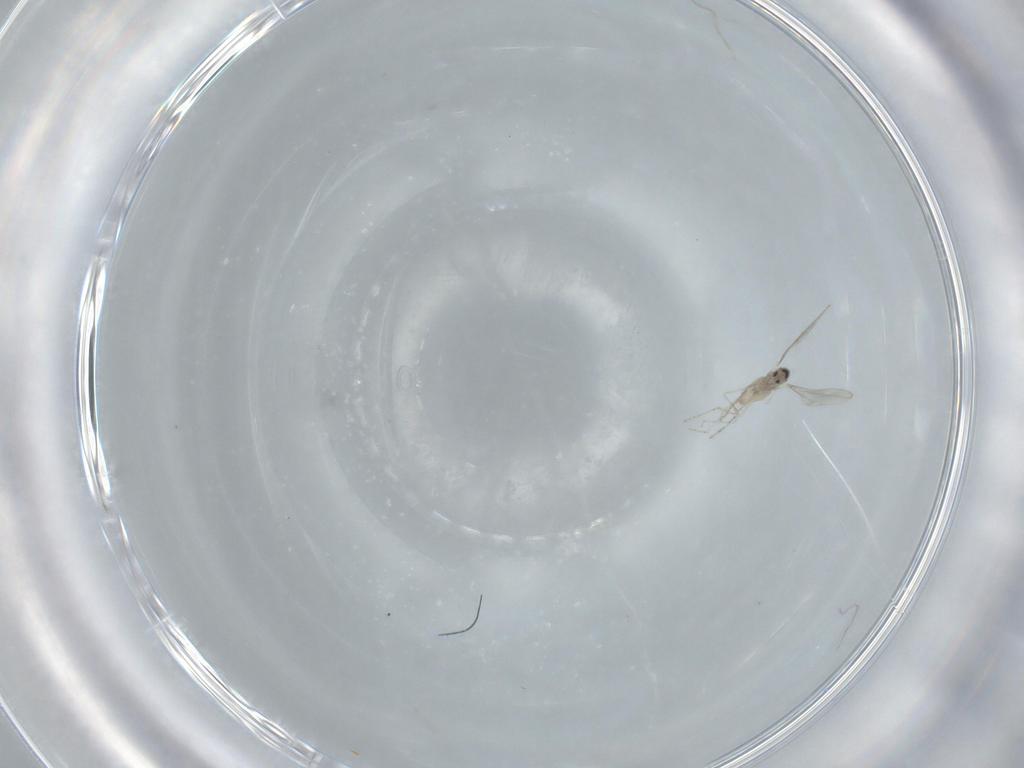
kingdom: Animalia
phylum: Arthropoda
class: Insecta
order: Diptera
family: Cecidomyiidae
